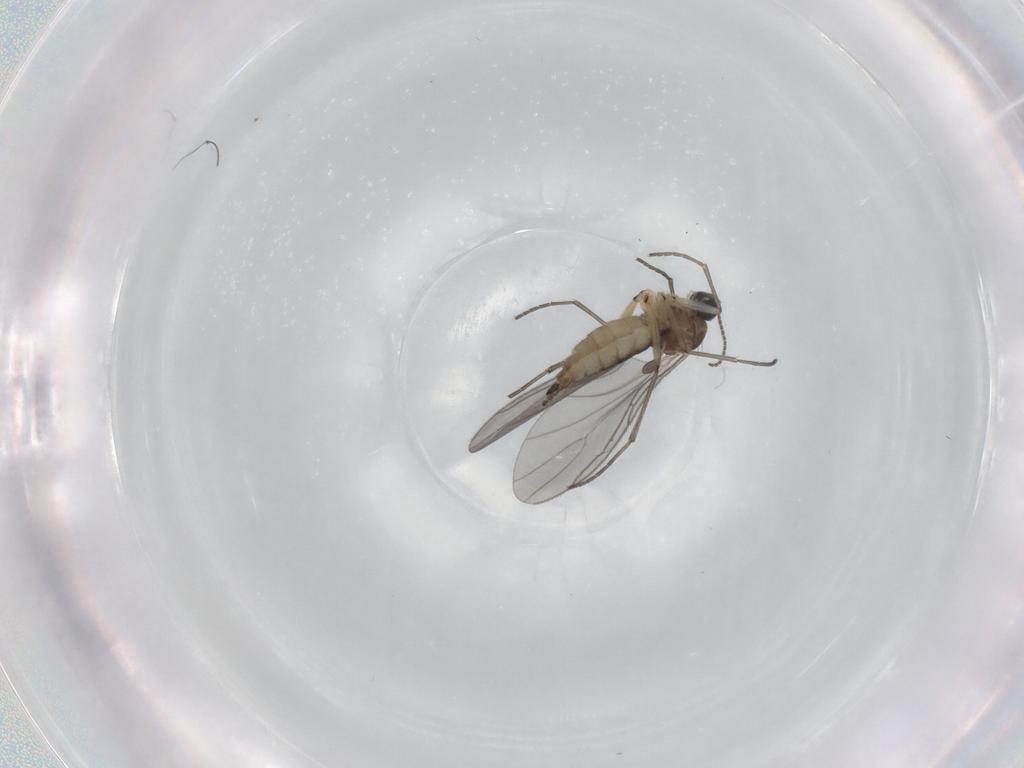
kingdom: Animalia
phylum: Arthropoda
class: Insecta
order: Diptera
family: Sciaridae
